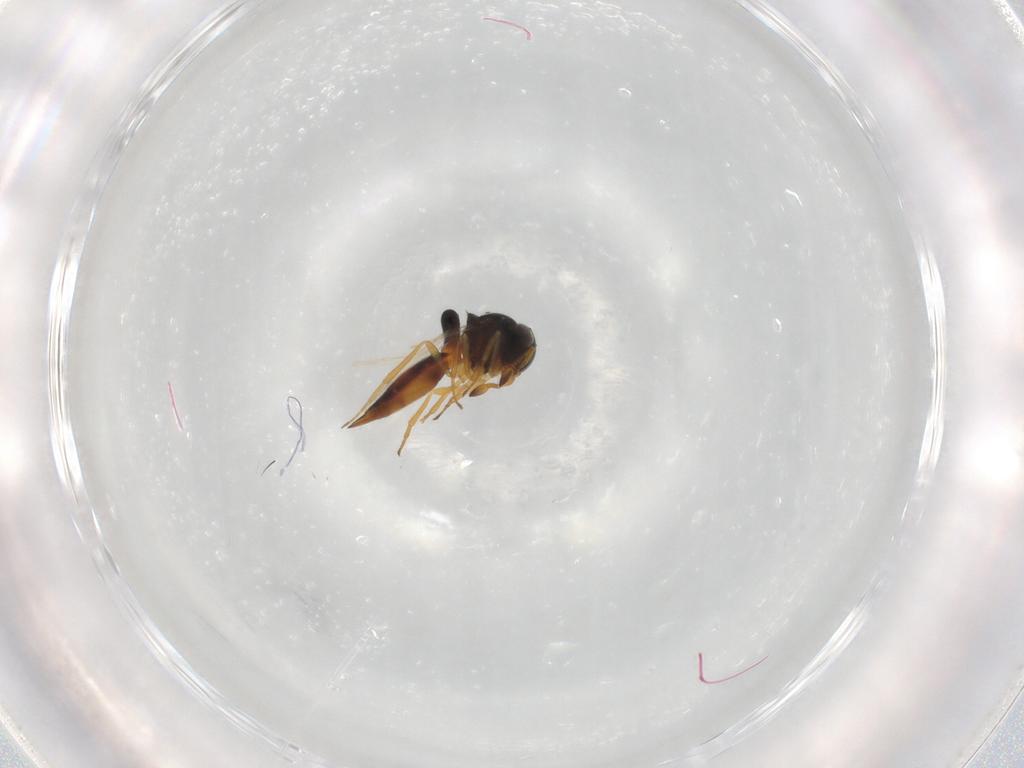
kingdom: Animalia
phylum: Arthropoda
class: Insecta
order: Hymenoptera
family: Scelionidae
